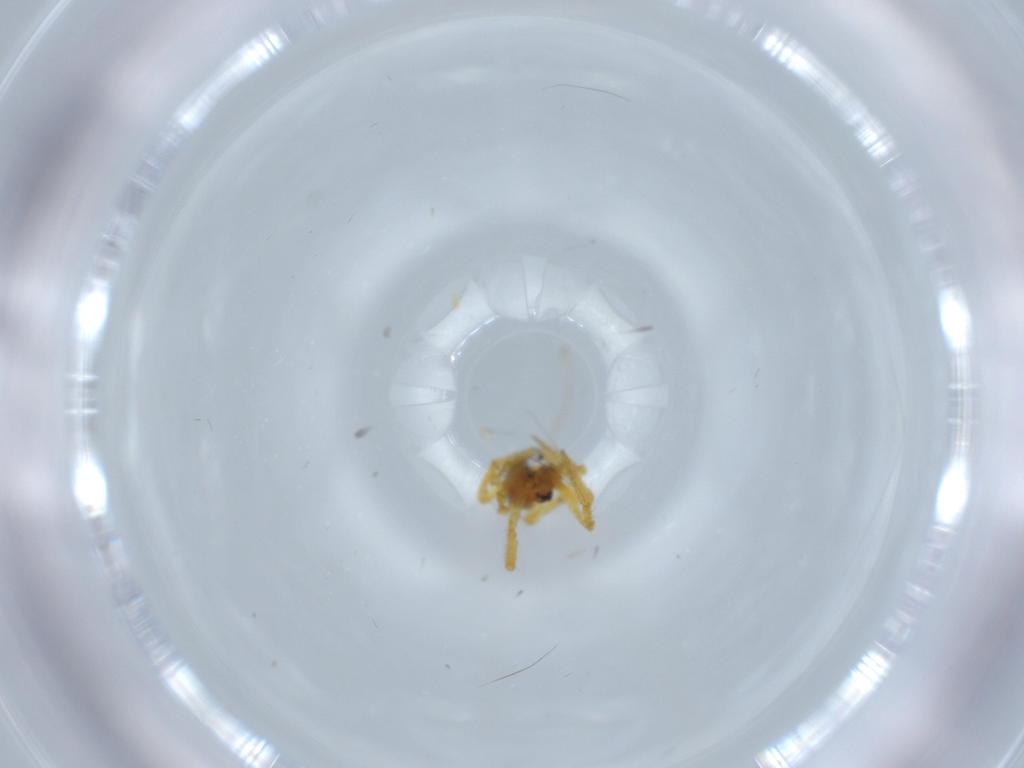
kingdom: Animalia
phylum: Arthropoda
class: Arachnida
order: Araneae
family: Theridiidae
